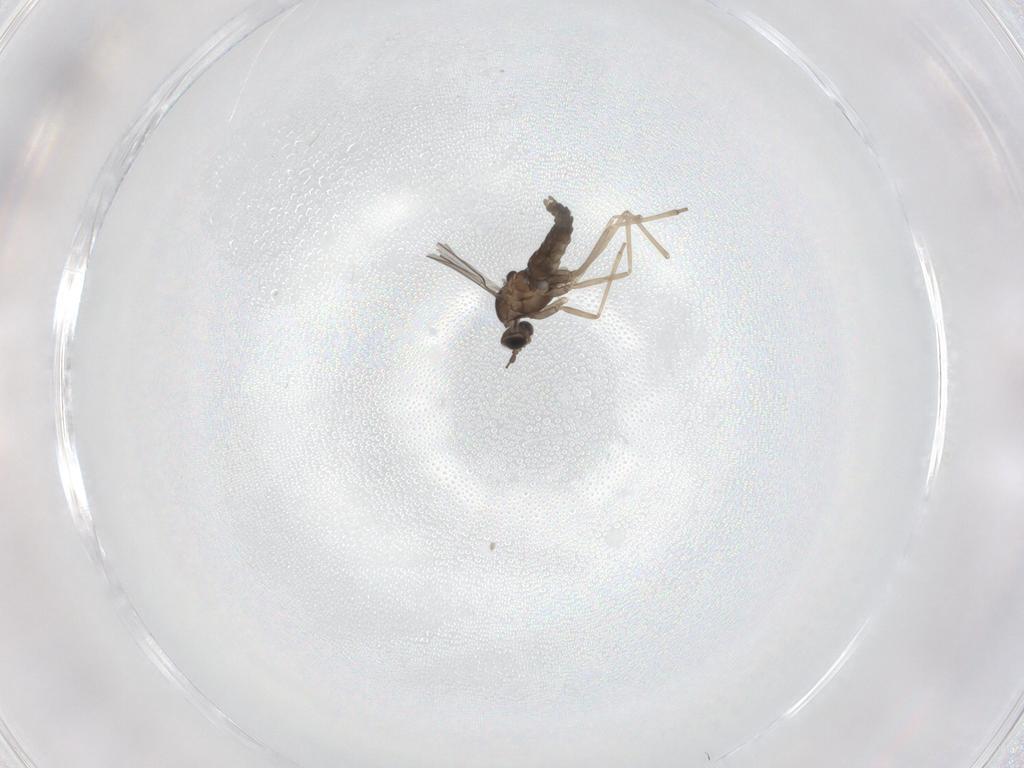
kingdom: Animalia
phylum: Arthropoda
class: Insecta
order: Diptera
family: Cecidomyiidae
